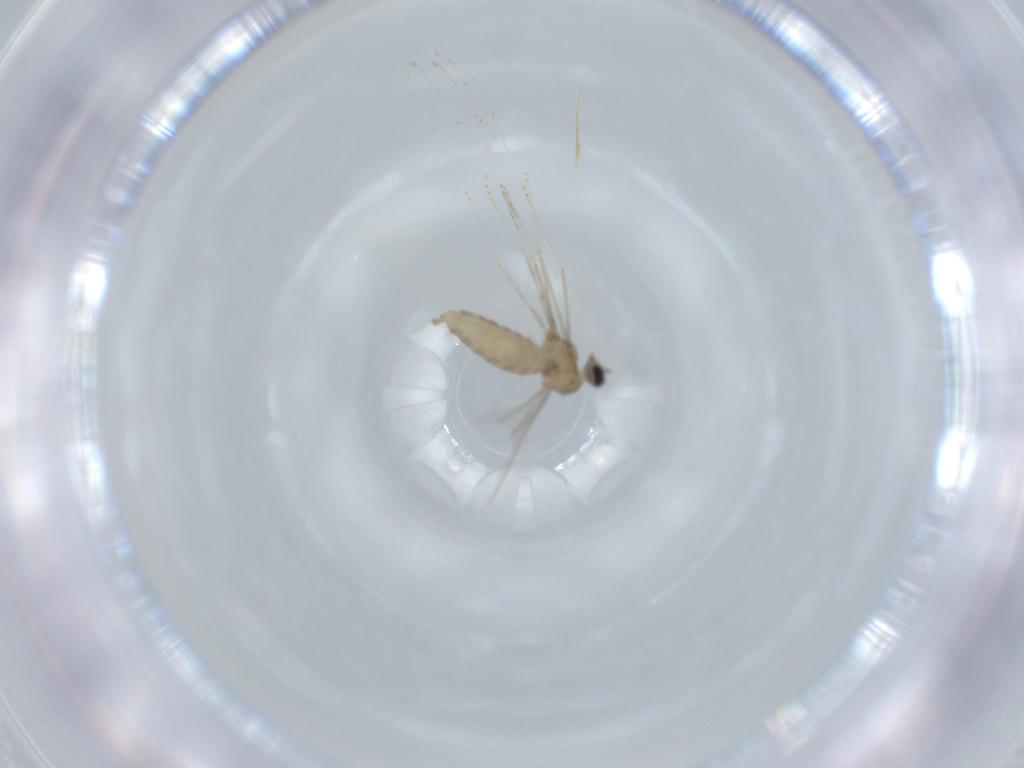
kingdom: Animalia
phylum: Arthropoda
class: Insecta
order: Diptera
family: Cecidomyiidae
